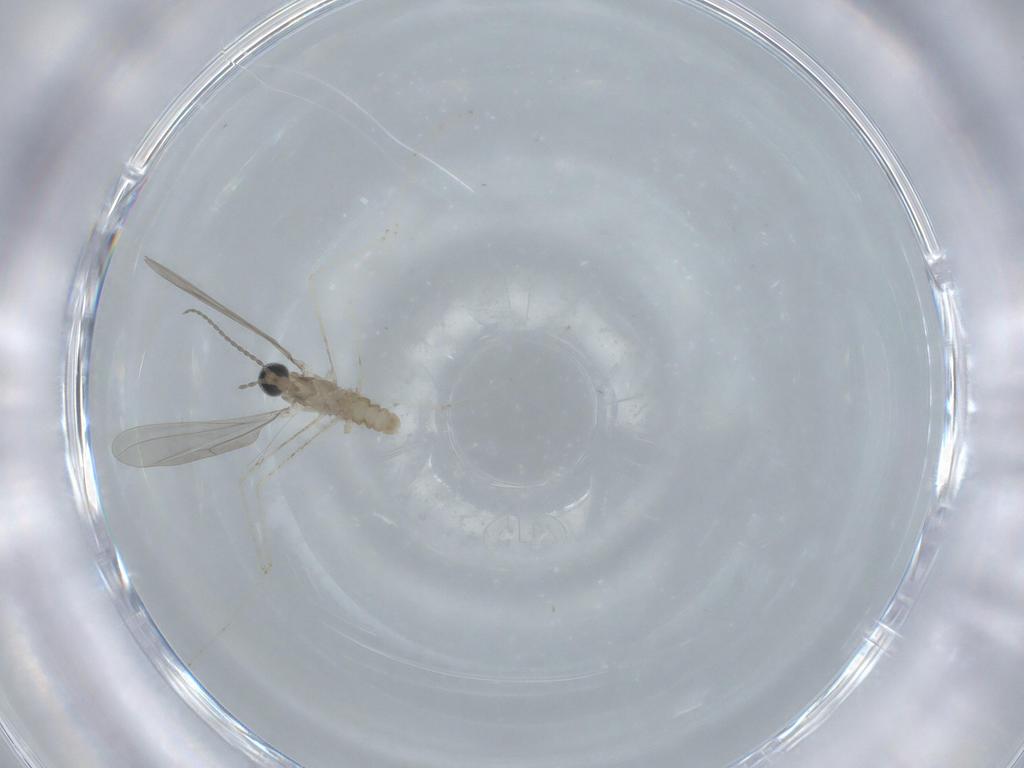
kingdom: Animalia
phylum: Arthropoda
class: Insecta
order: Diptera
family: Cecidomyiidae
